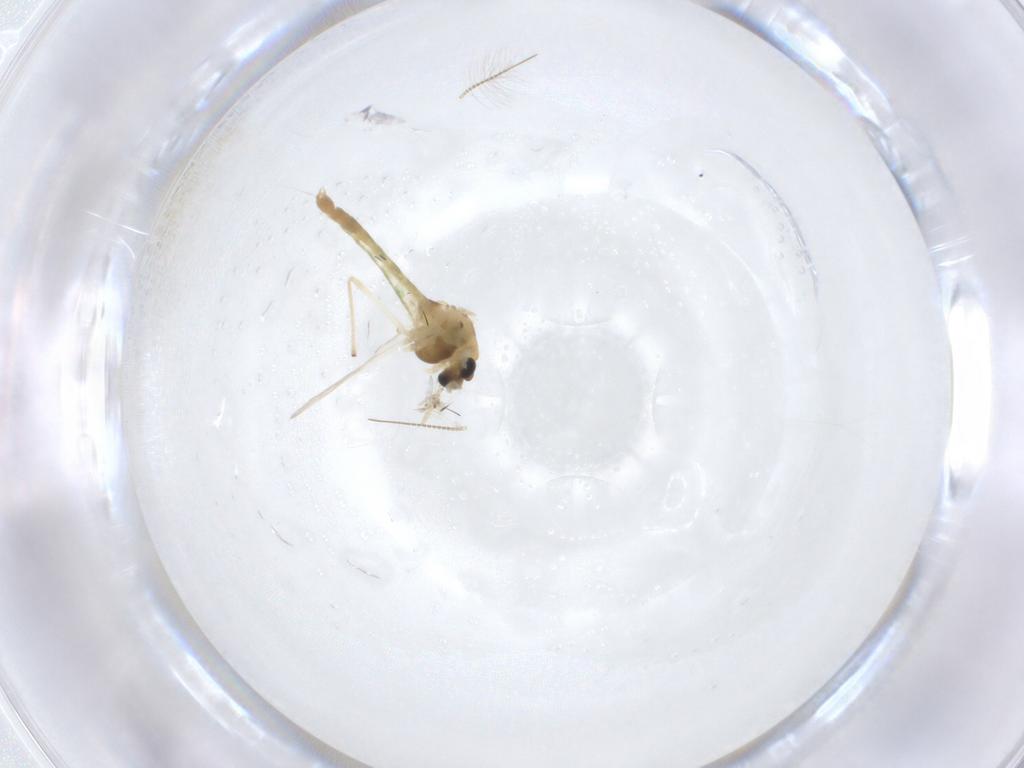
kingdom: Animalia
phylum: Arthropoda
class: Insecta
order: Diptera
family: Chironomidae
